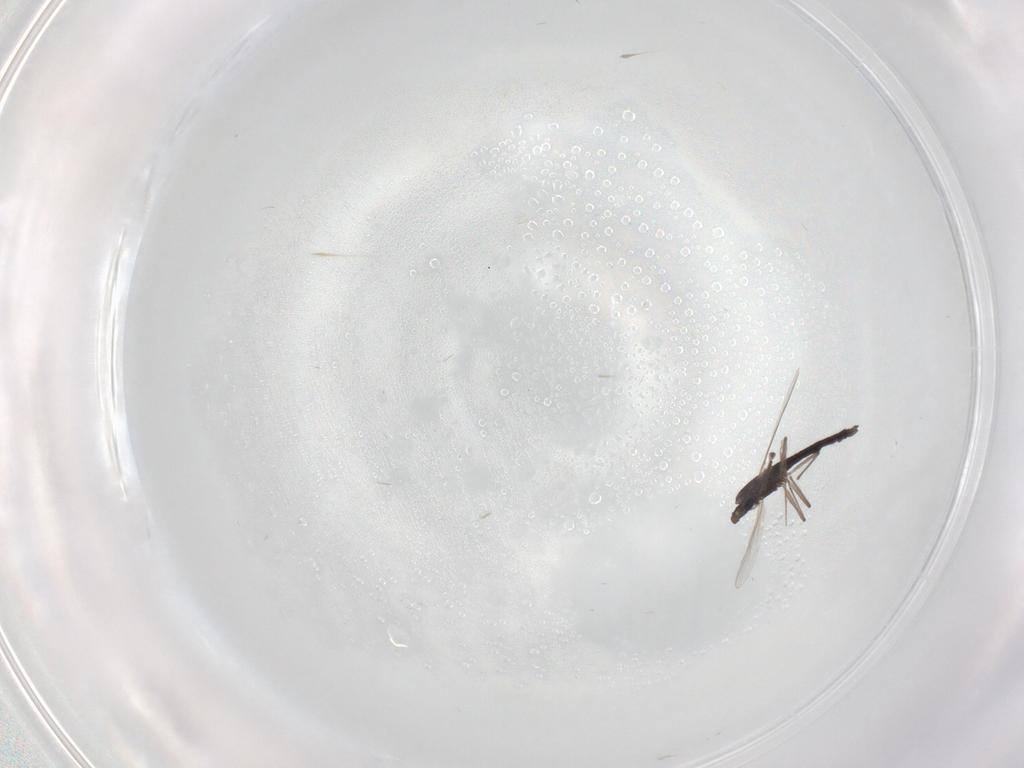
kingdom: Animalia
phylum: Arthropoda
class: Insecta
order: Diptera
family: Chironomidae
